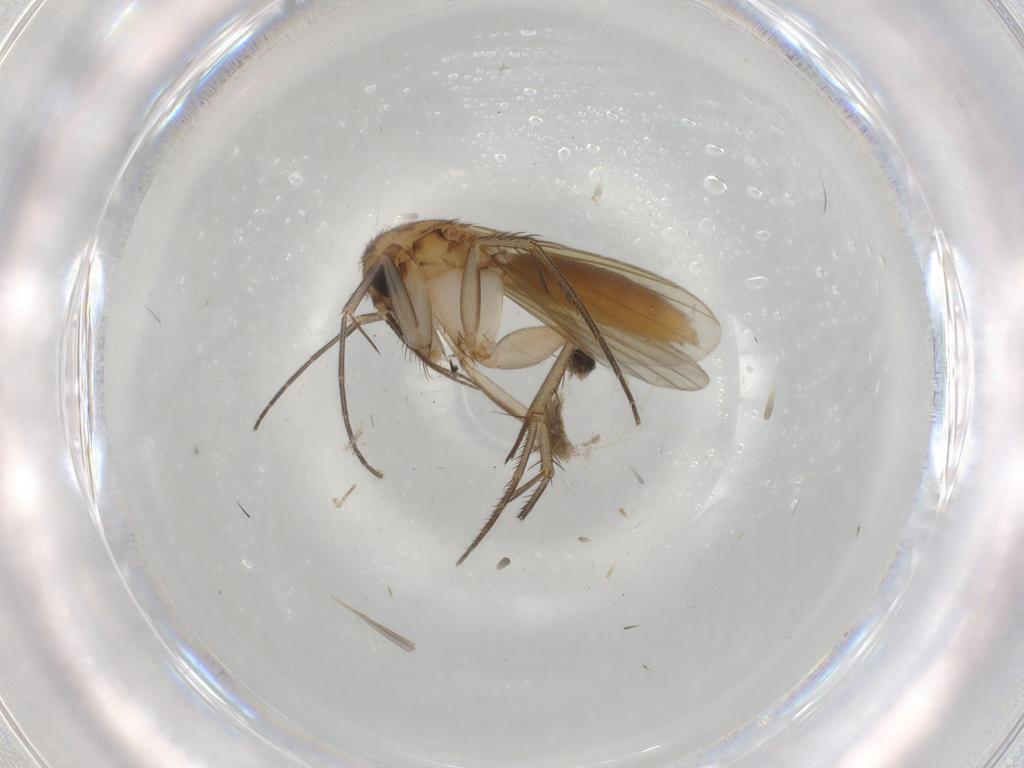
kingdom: Animalia
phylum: Arthropoda
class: Insecta
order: Diptera
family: Mycetophilidae
